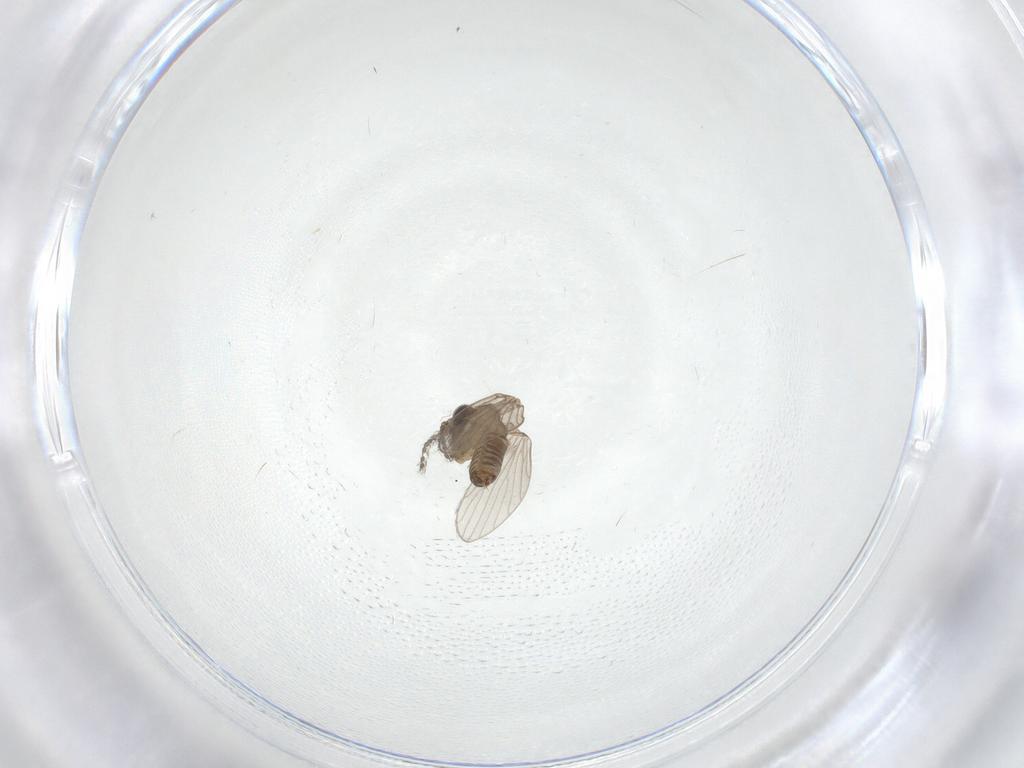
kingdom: Animalia
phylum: Arthropoda
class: Insecta
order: Diptera
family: Psychodidae
